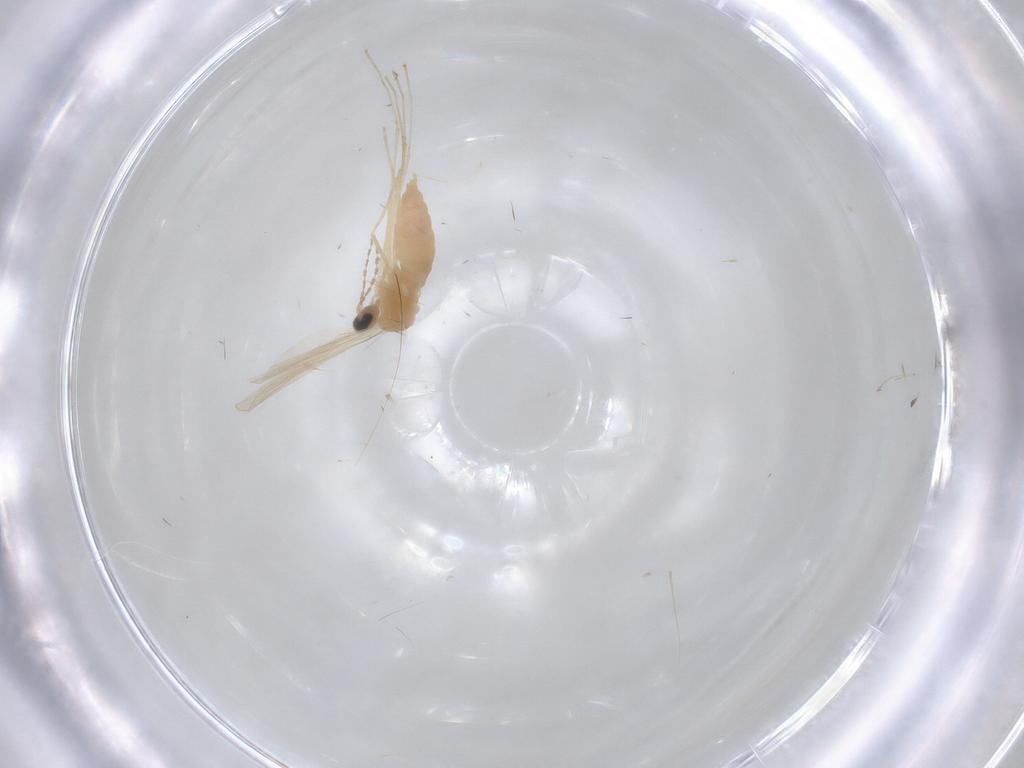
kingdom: Animalia
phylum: Arthropoda
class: Insecta
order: Diptera
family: Cecidomyiidae
